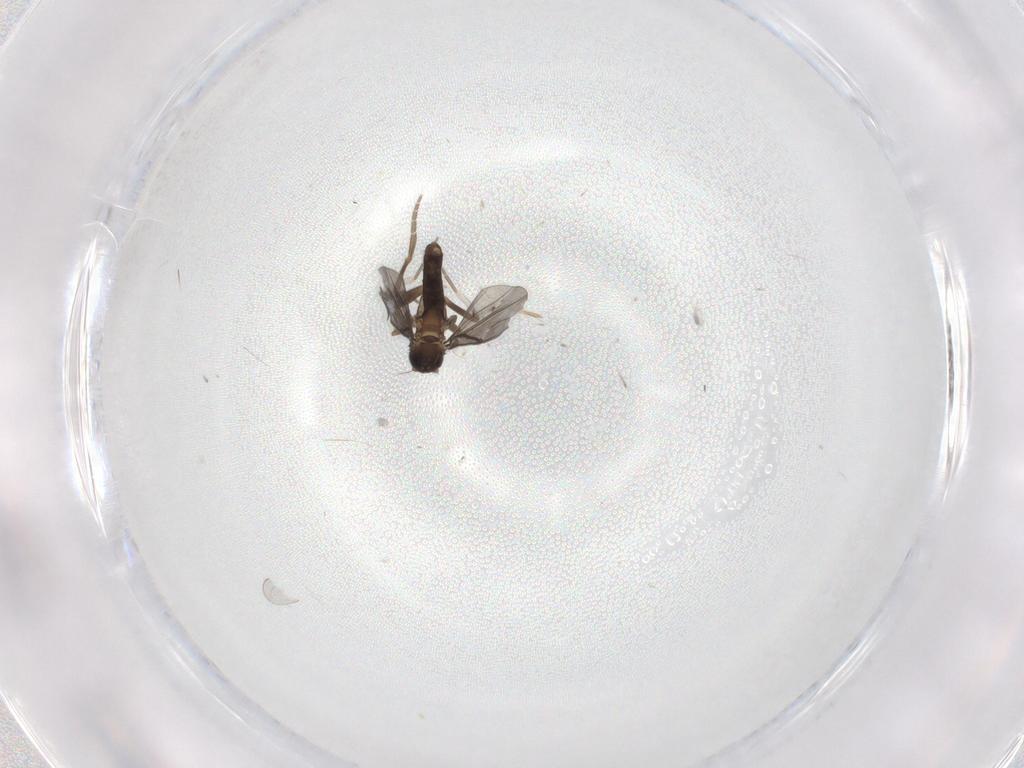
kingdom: Animalia
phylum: Arthropoda
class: Insecta
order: Diptera
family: Phoridae
